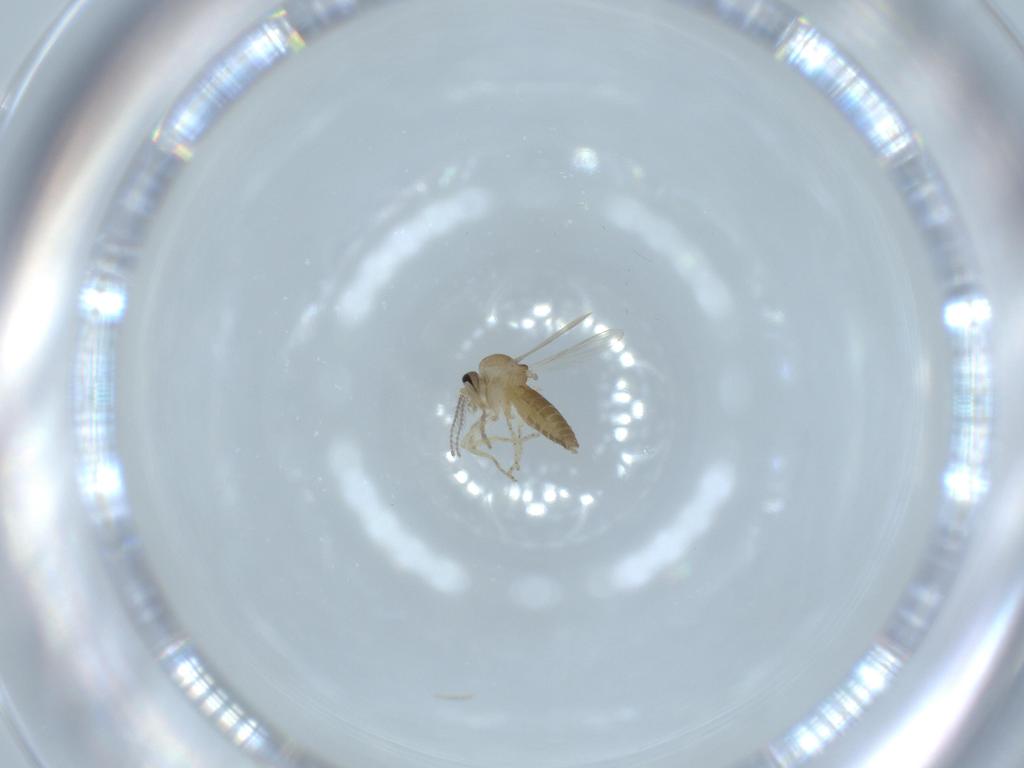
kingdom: Animalia
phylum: Arthropoda
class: Insecta
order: Diptera
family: Ceratopogonidae
